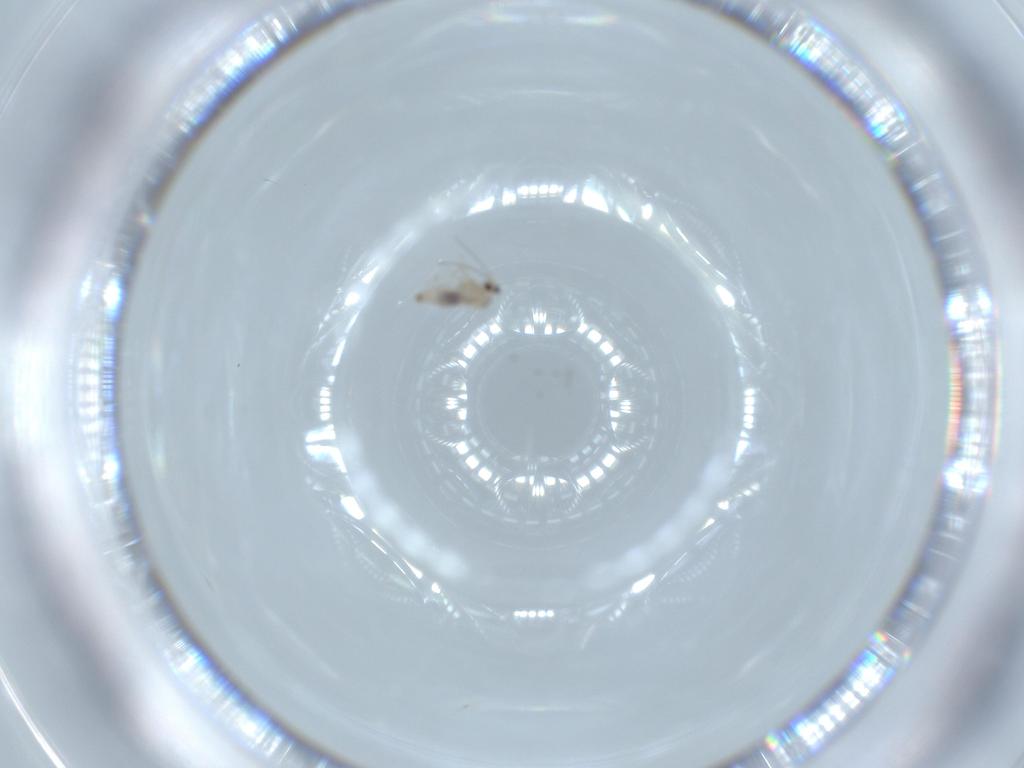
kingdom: Animalia
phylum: Arthropoda
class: Insecta
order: Diptera
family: Cecidomyiidae
